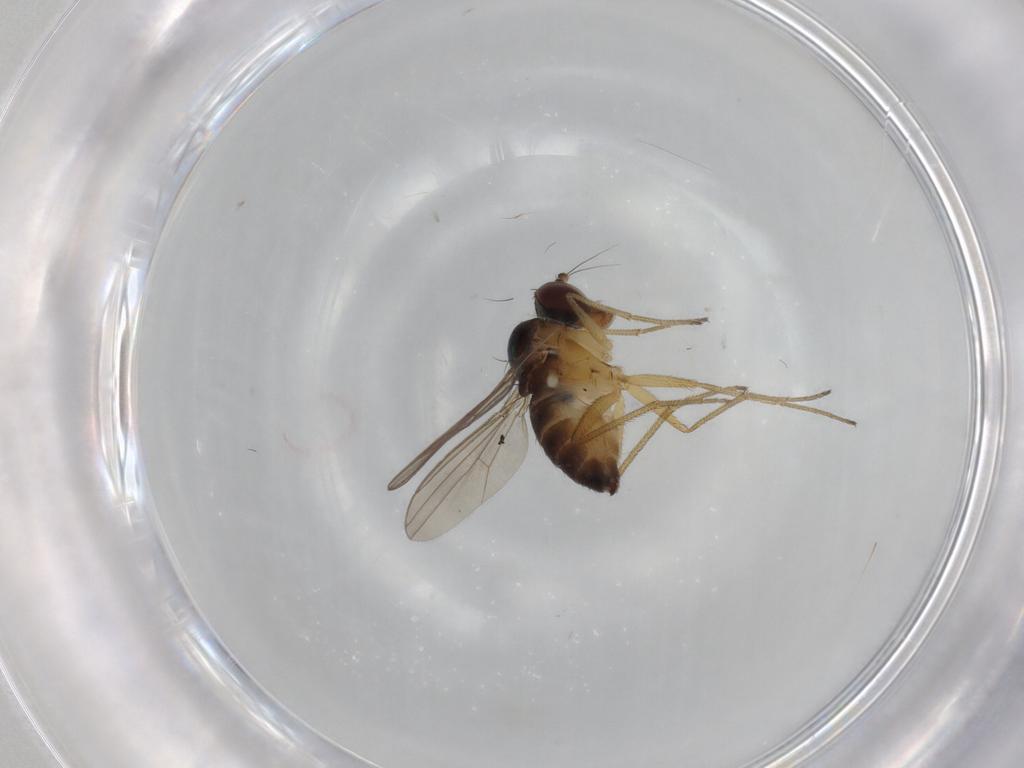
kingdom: Animalia
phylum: Arthropoda
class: Insecta
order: Diptera
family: Dolichopodidae
